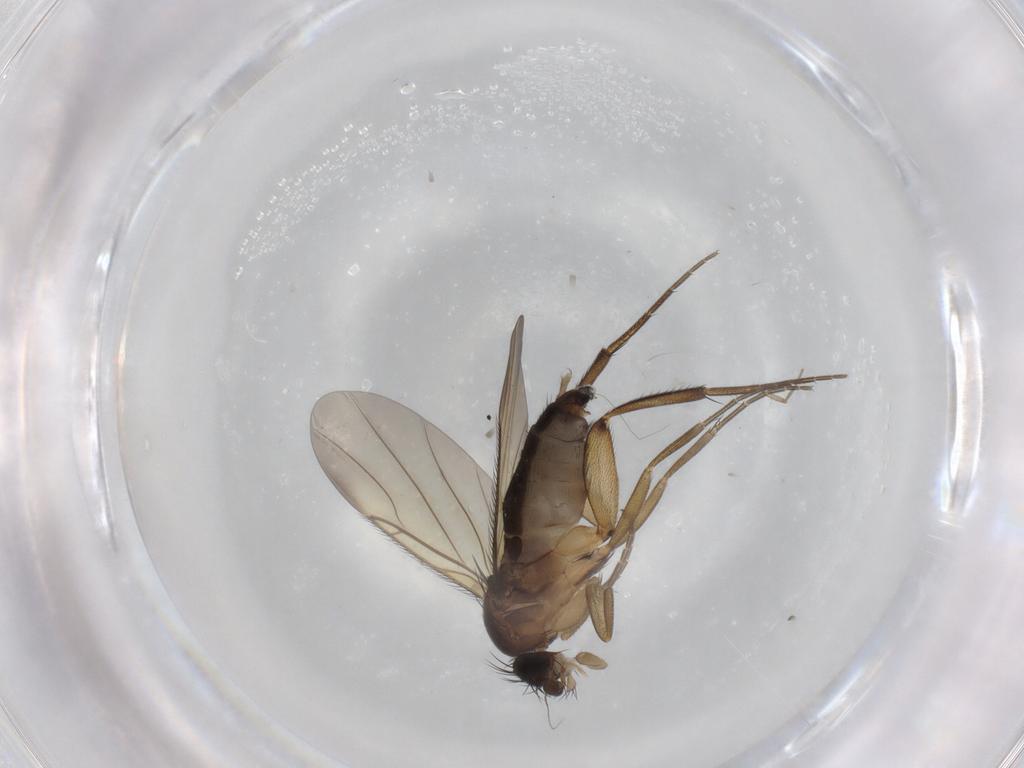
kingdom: Animalia
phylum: Arthropoda
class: Insecta
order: Diptera
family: Phoridae
